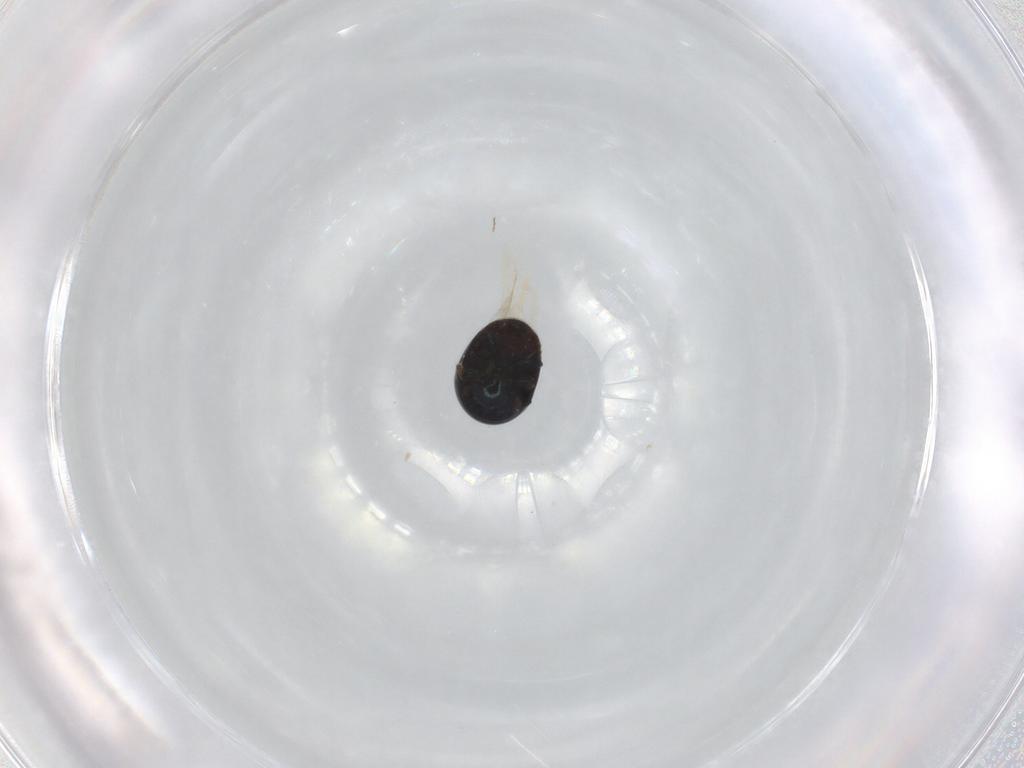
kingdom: Animalia
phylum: Arthropoda
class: Insecta
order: Coleoptera
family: Cybocephalidae
